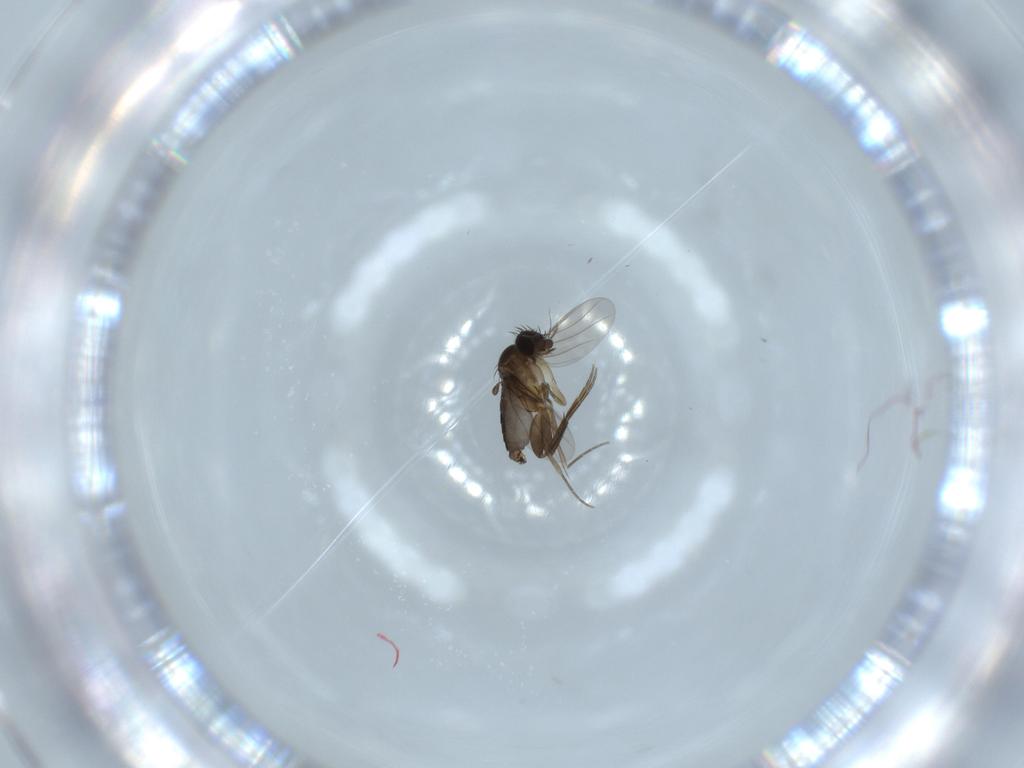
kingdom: Animalia
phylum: Arthropoda
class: Insecta
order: Diptera
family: Phoridae
